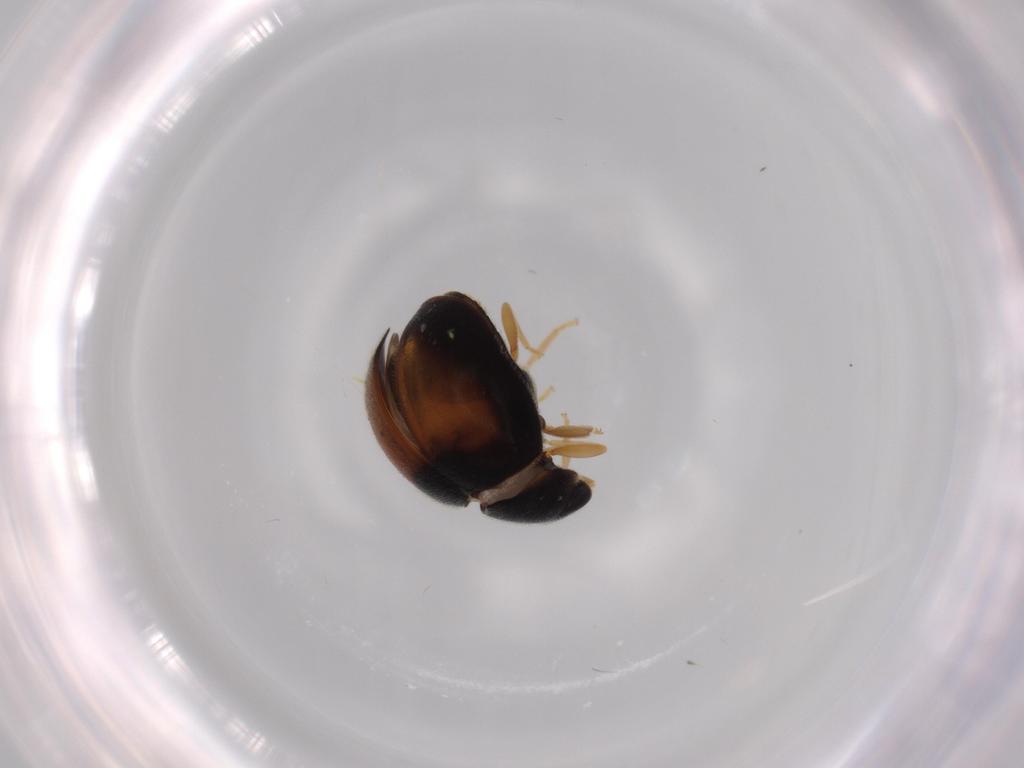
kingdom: Animalia
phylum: Arthropoda
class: Insecta
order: Coleoptera
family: Coccinellidae
